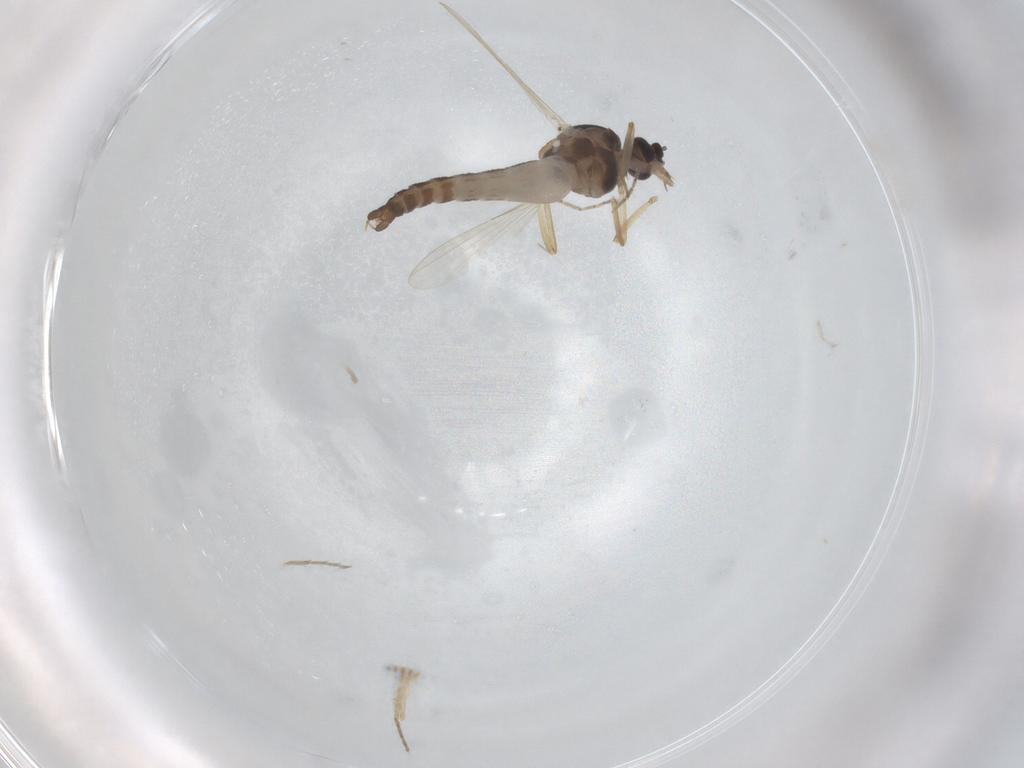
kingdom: Animalia
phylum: Arthropoda
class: Insecta
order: Diptera
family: Ceratopogonidae
